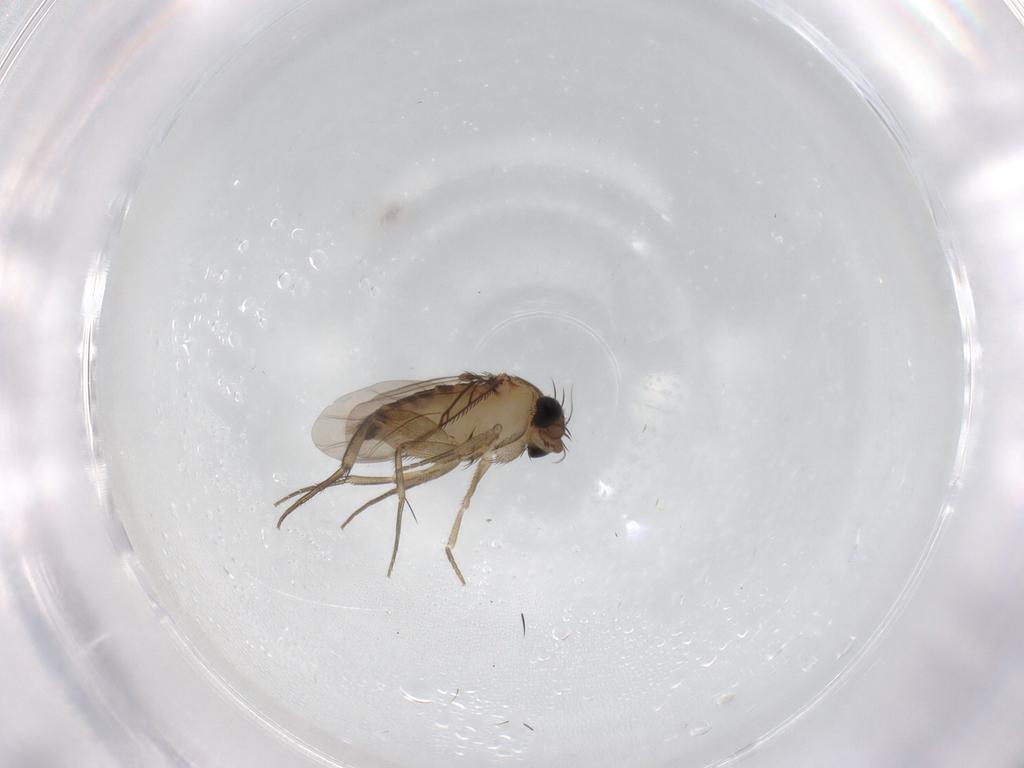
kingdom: Animalia
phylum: Arthropoda
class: Insecta
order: Diptera
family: Phoridae
